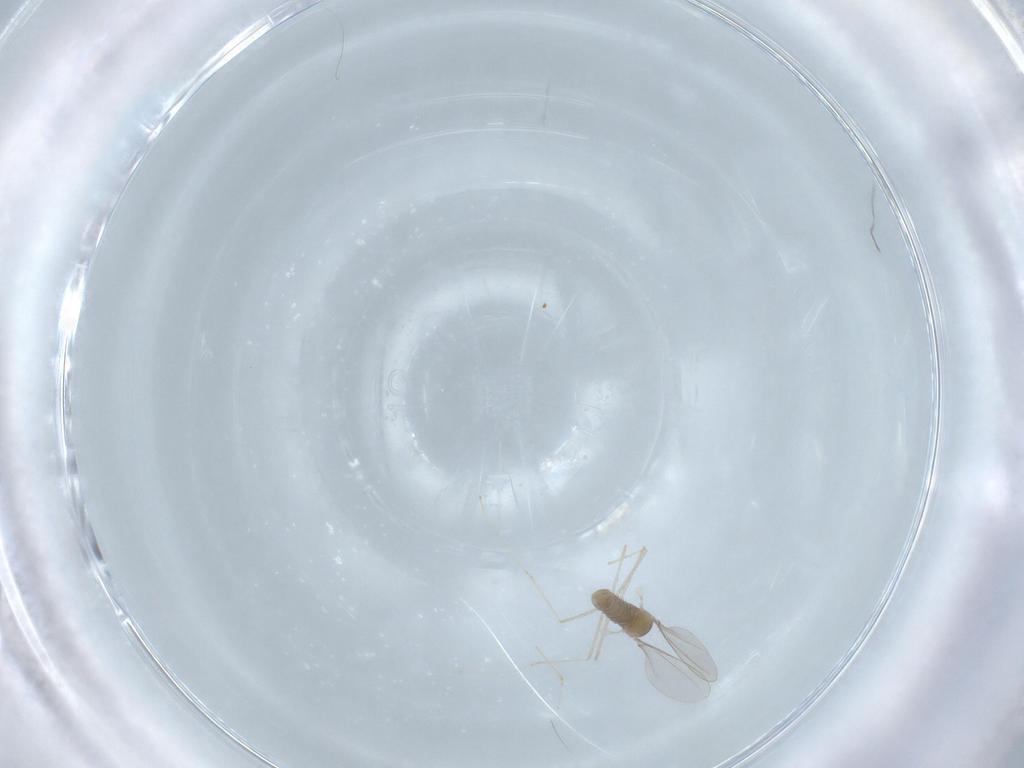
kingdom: Animalia
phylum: Arthropoda
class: Insecta
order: Diptera
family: Cecidomyiidae
